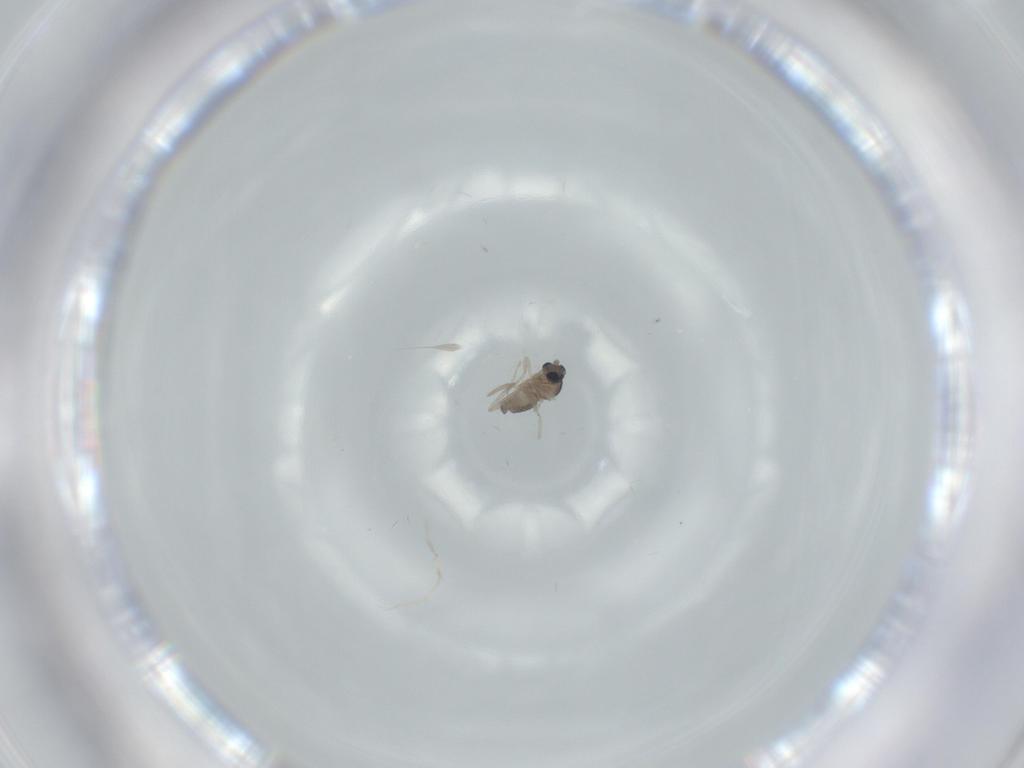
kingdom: Animalia
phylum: Arthropoda
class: Insecta
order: Diptera
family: Cecidomyiidae
